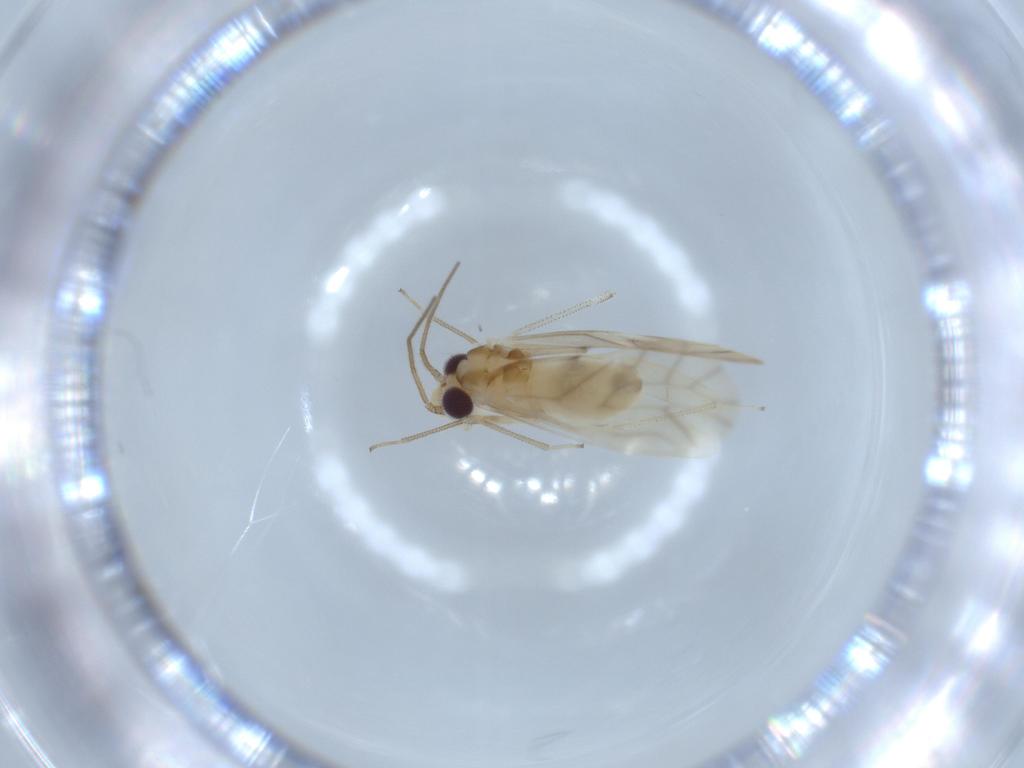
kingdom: Animalia
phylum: Arthropoda
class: Insecta
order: Psocodea
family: Caeciliusidae
